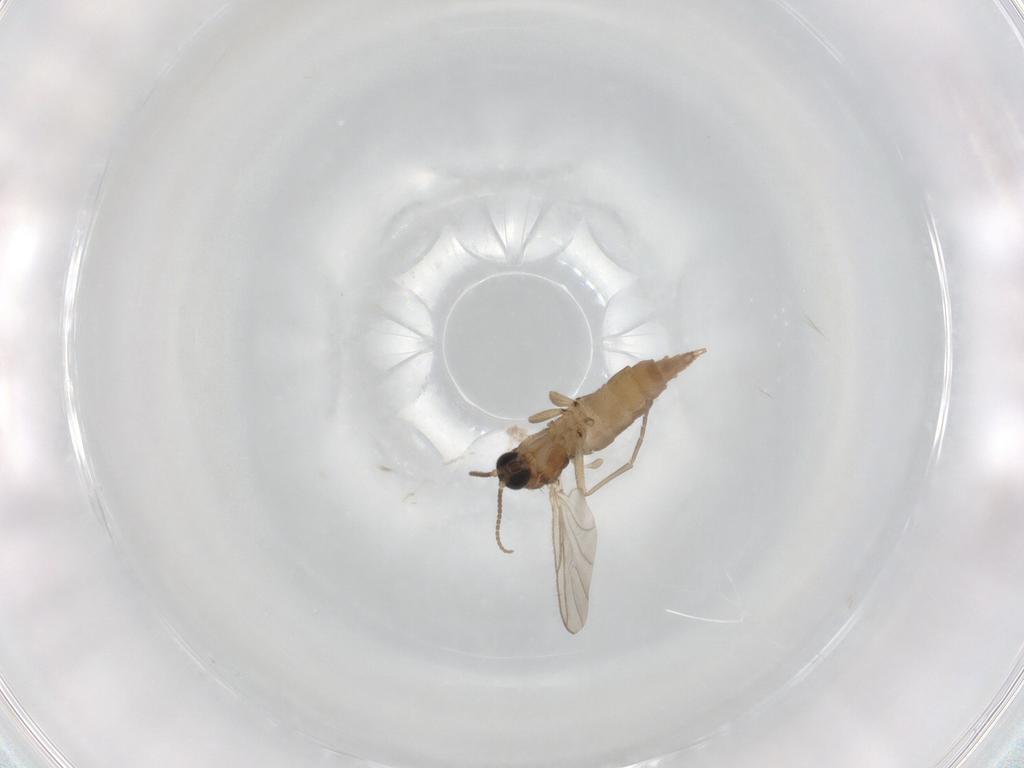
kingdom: Animalia
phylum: Arthropoda
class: Insecta
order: Diptera
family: Sciaridae
